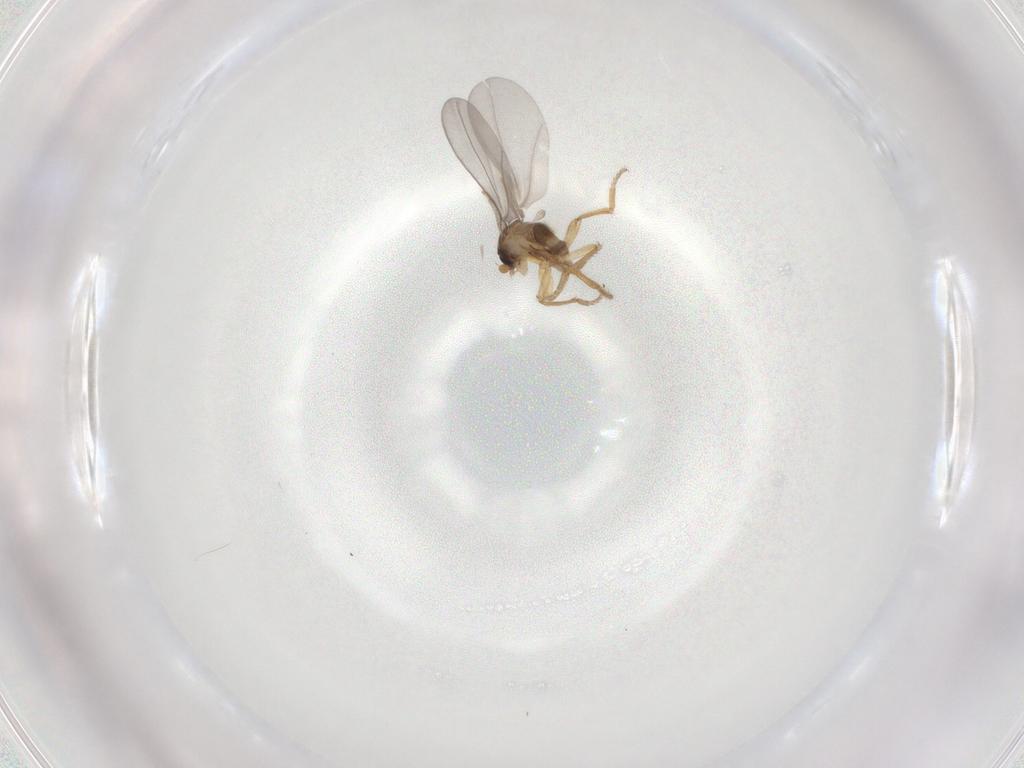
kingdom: Animalia
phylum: Arthropoda
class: Insecta
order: Diptera
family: Phoridae
